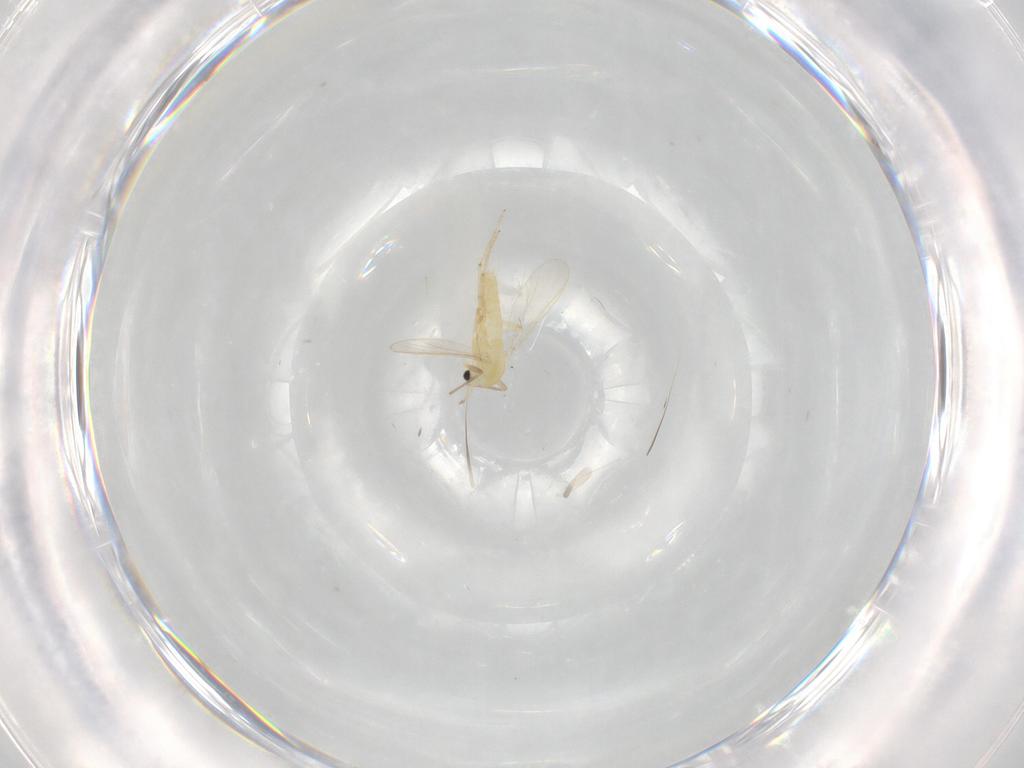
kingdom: Animalia
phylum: Arthropoda
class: Insecta
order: Diptera
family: Chironomidae
